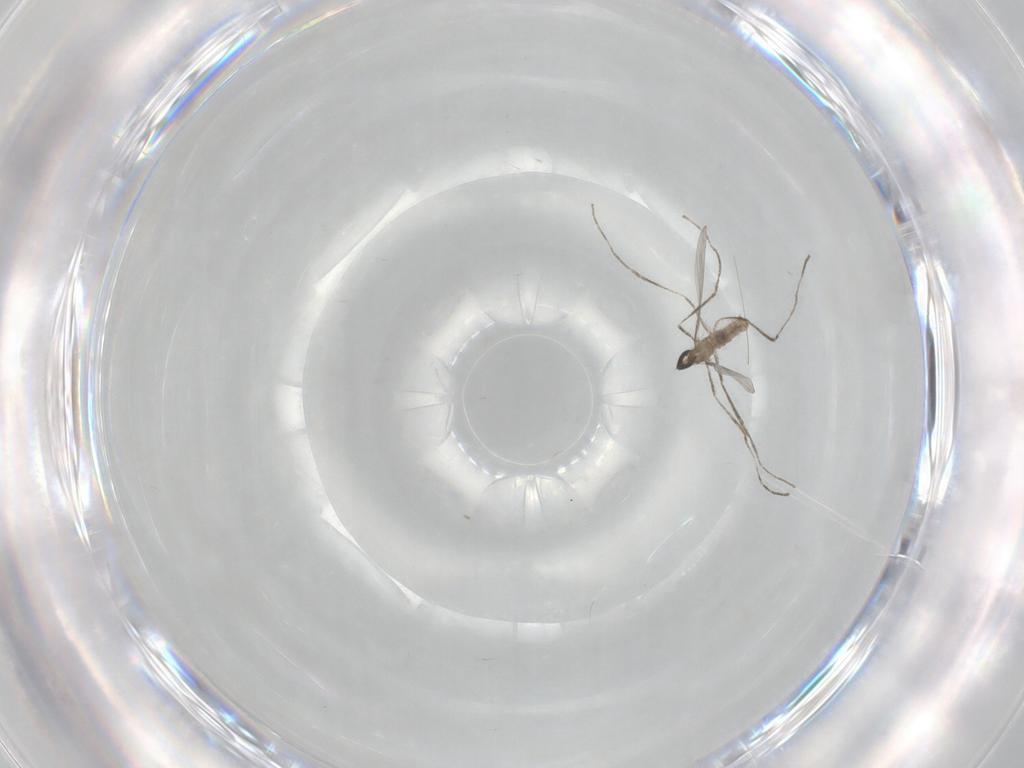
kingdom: Animalia
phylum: Arthropoda
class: Insecta
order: Diptera
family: Cecidomyiidae
